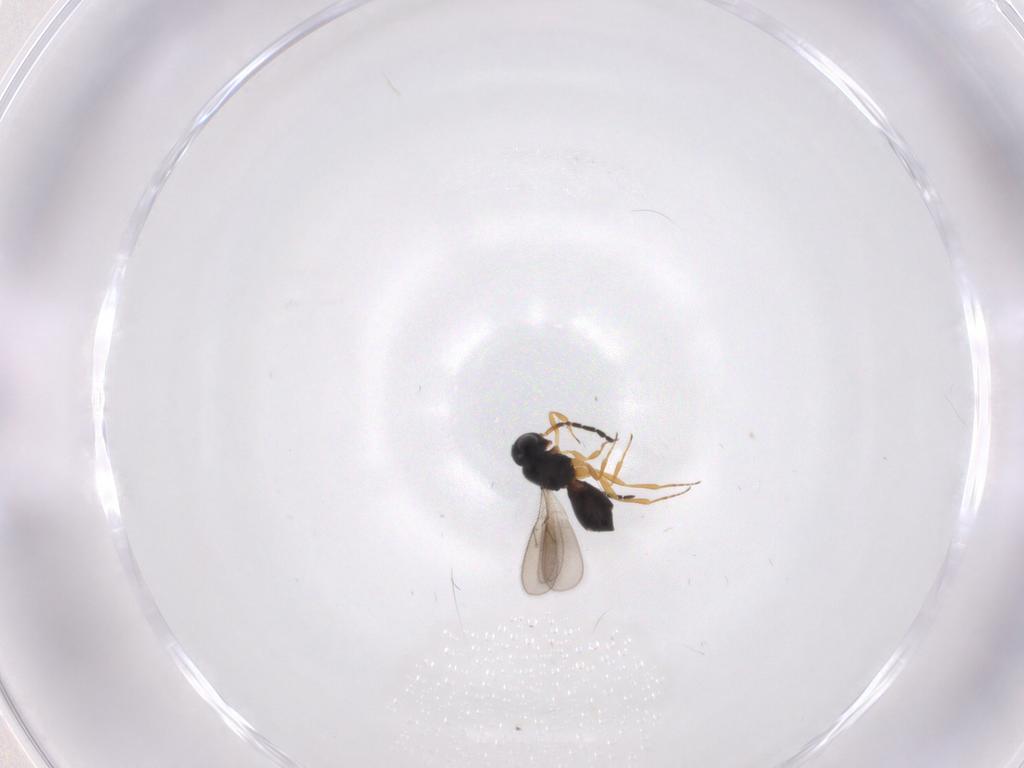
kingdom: Animalia
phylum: Arthropoda
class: Insecta
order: Hymenoptera
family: Scelionidae
